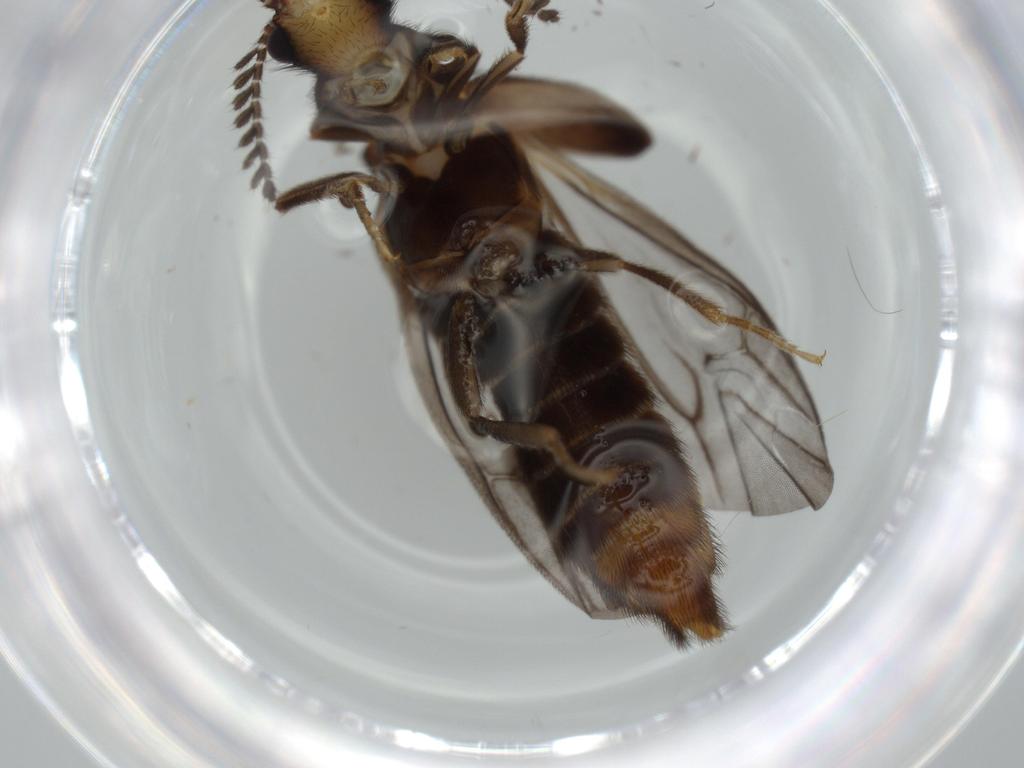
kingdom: Animalia
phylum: Arthropoda
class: Insecta
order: Coleoptera
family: Phengodidae
